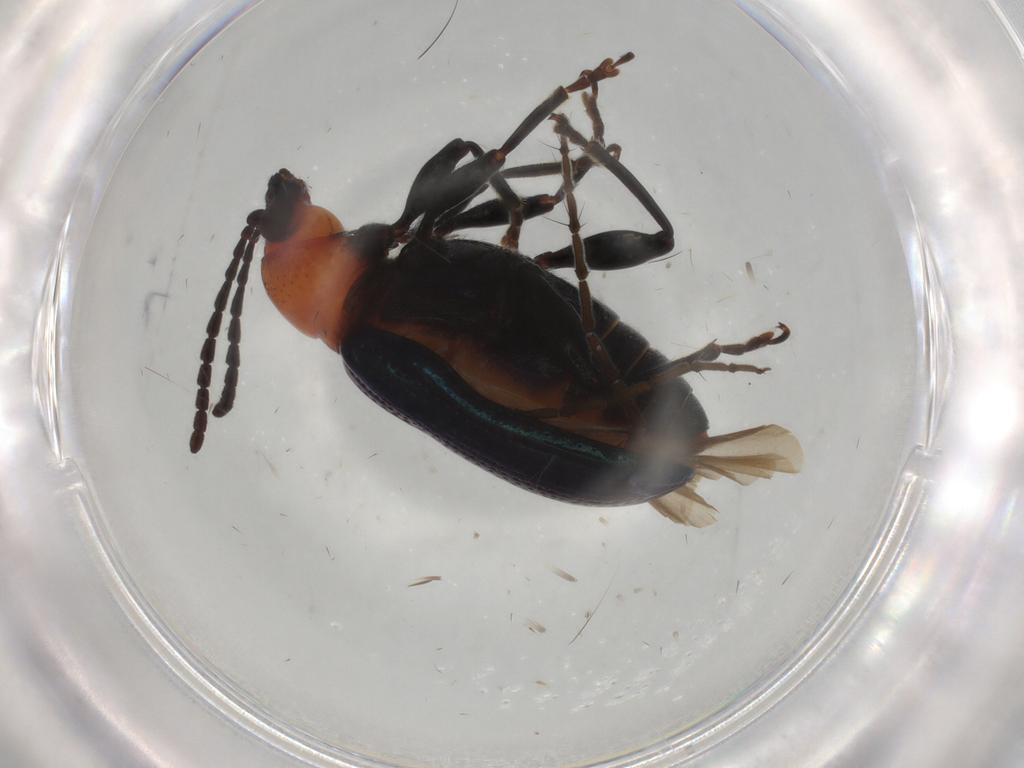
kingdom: Animalia
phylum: Arthropoda
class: Insecta
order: Coleoptera
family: Chrysomelidae
